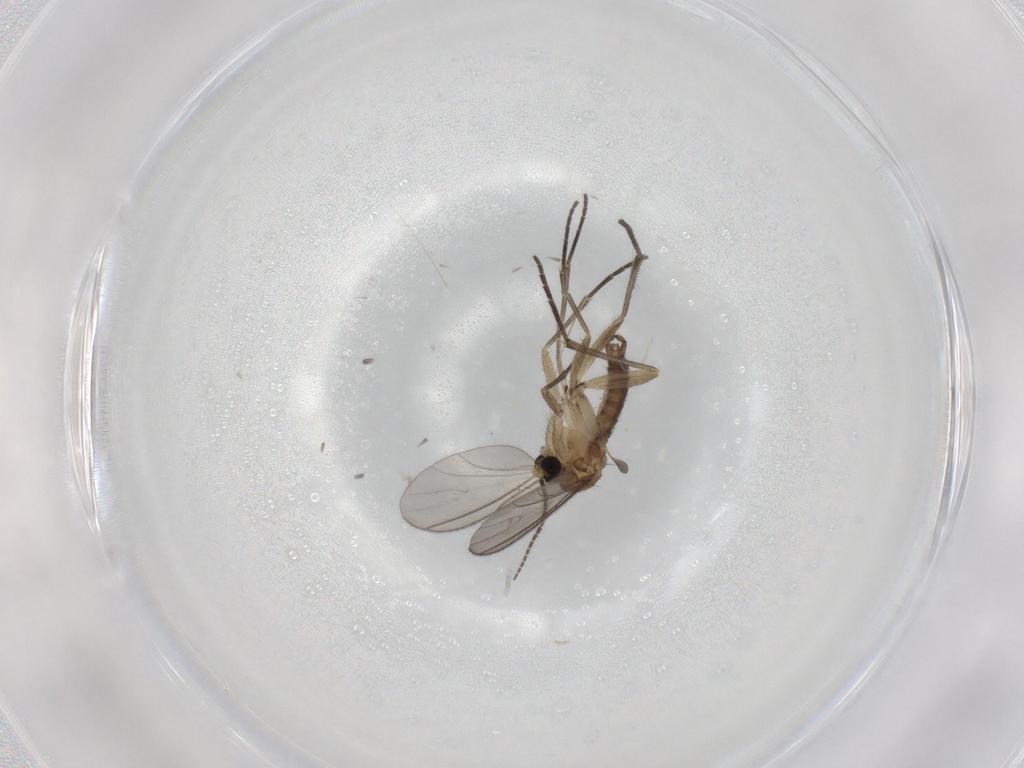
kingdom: Animalia
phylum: Arthropoda
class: Insecta
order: Diptera
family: Sciaridae
